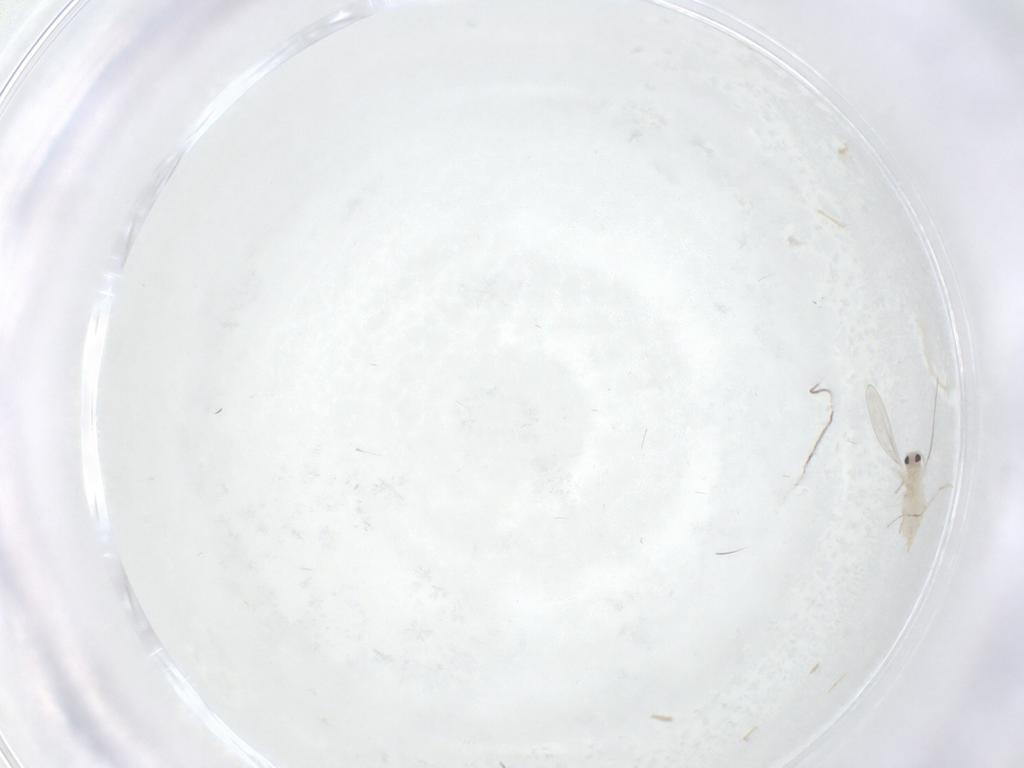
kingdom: Animalia
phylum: Arthropoda
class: Insecta
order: Diptera
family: Cecidomyiidae
